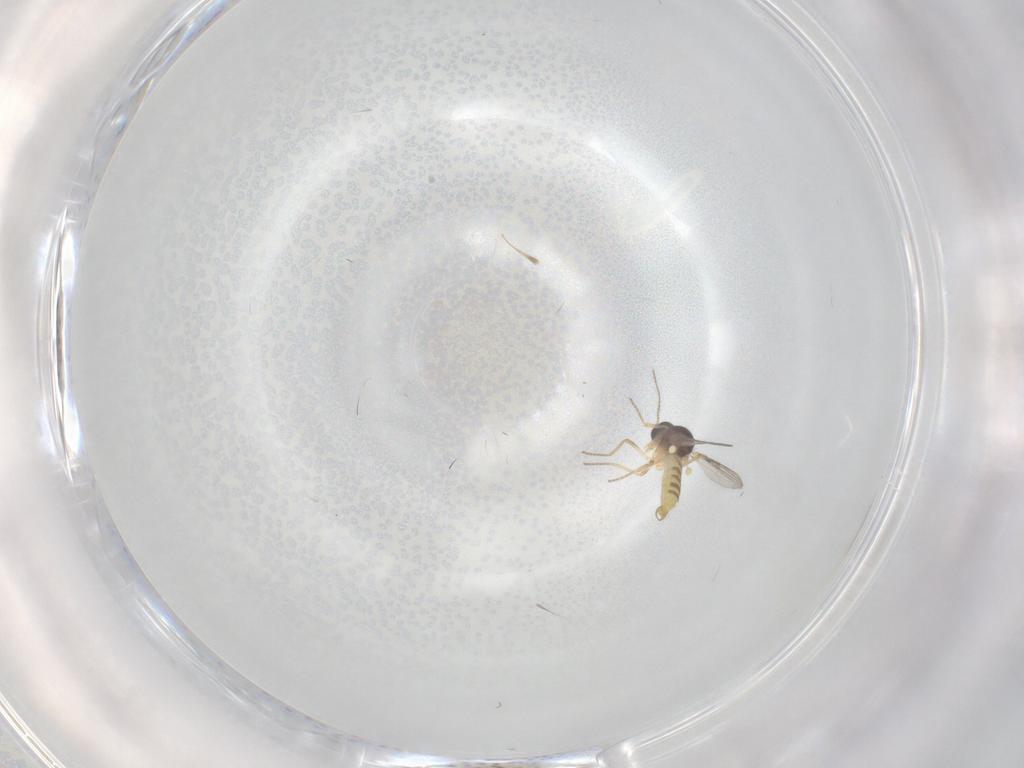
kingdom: Animalia
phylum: Arthropoda
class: Insecta
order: Diptera
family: Ceratopogonidae
